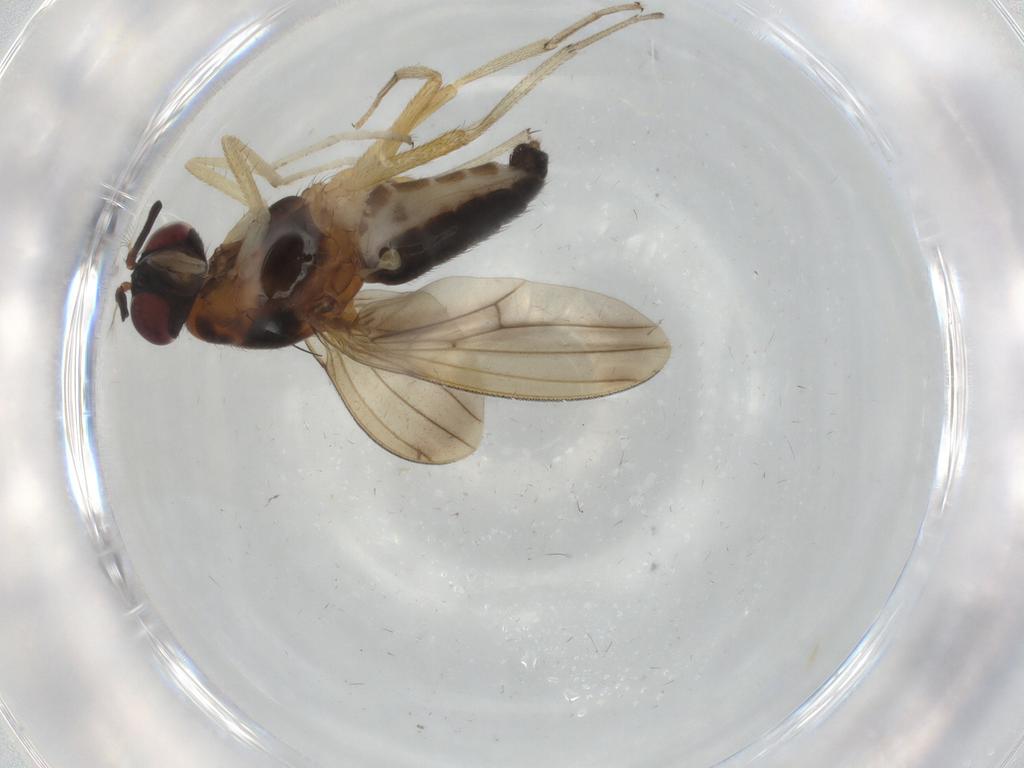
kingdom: Animalia
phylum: Arthropoda
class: Insecta
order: Diptera
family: Lauxaniidae
